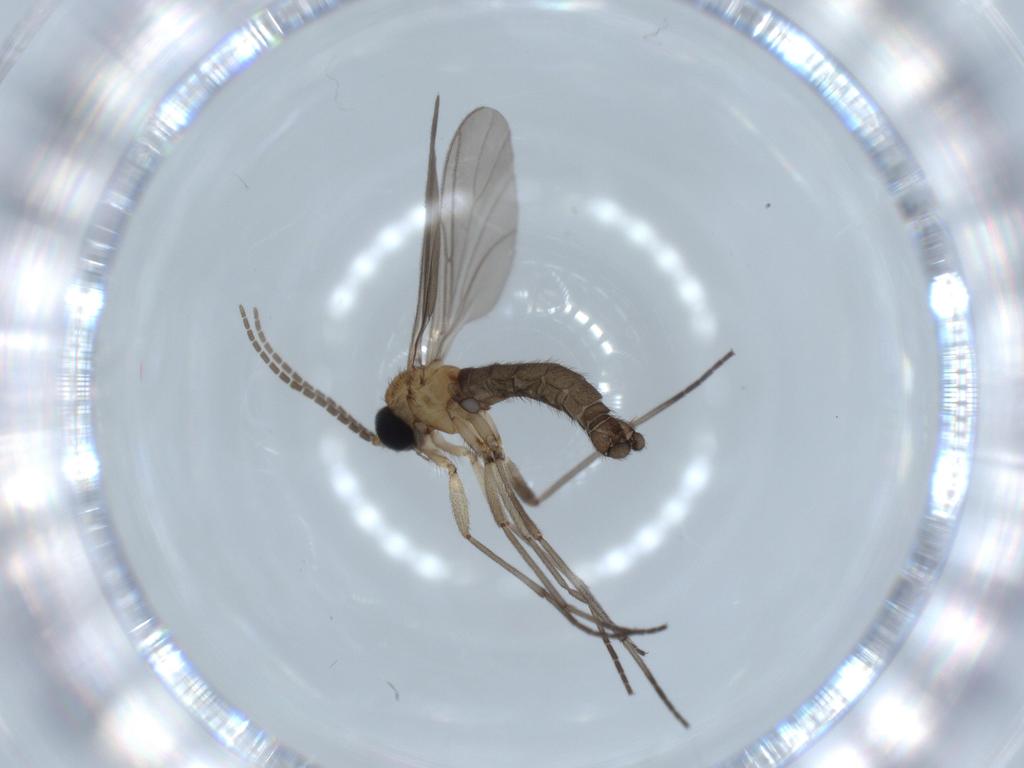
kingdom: Animalia
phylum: Arthropoda
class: Insecta
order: Diptera
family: Sciaridae
